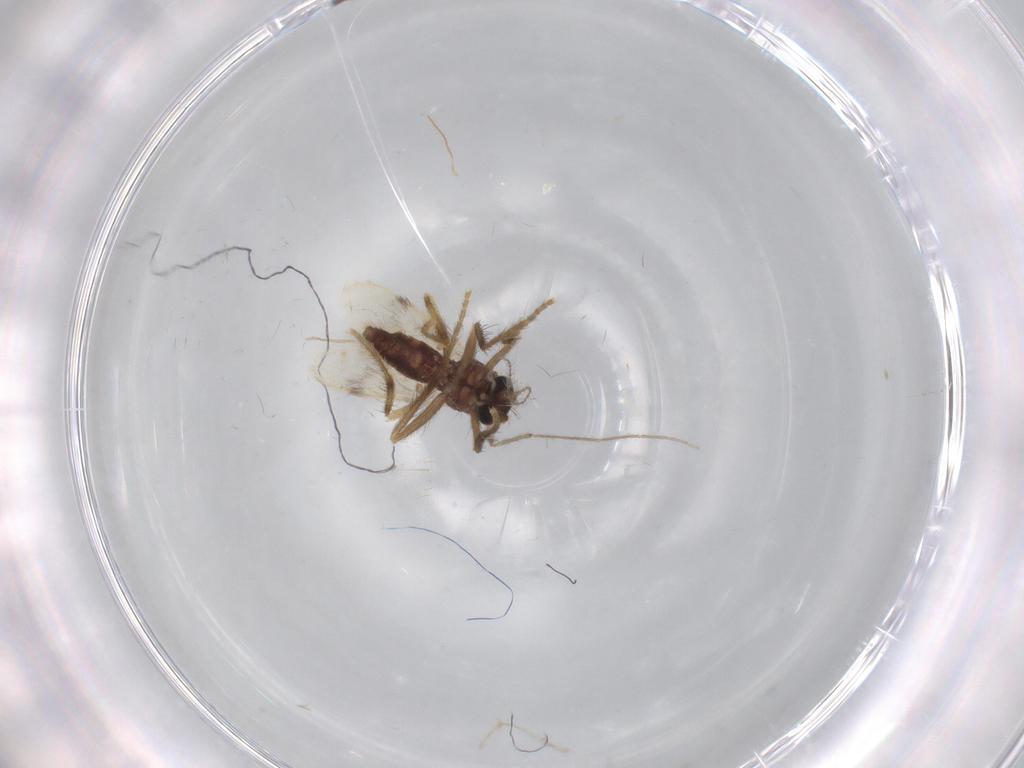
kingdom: Animalia
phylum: Arthropoda
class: Insecta
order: Diptera
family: Corethrellidae
